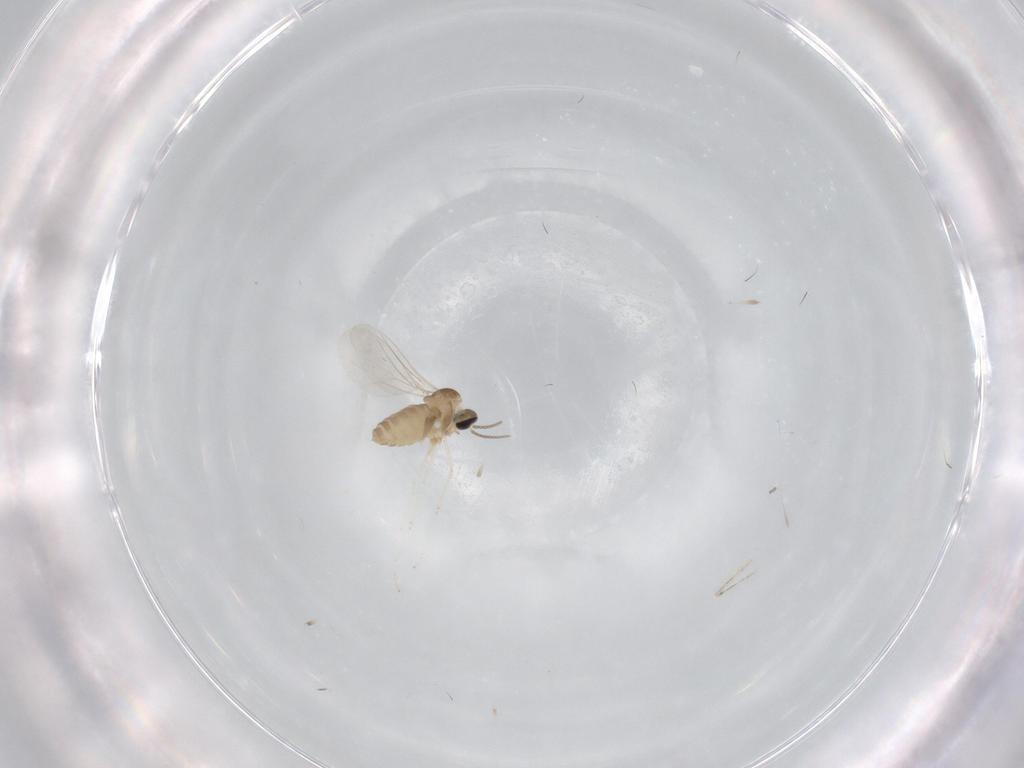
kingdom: Animalia
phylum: Arthropoda
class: Insecta
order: Diptera
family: Cecidomyiidae
